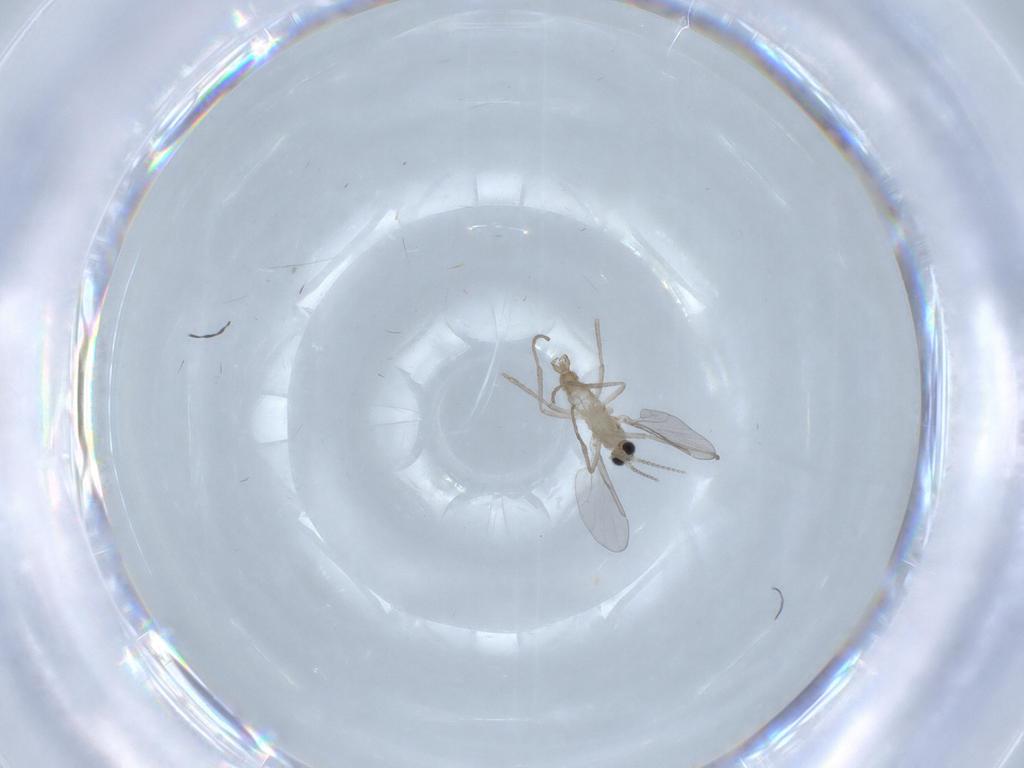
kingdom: Animalia
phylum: Arthropoda
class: Insecta
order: Diptera
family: Cecidomyiidae
